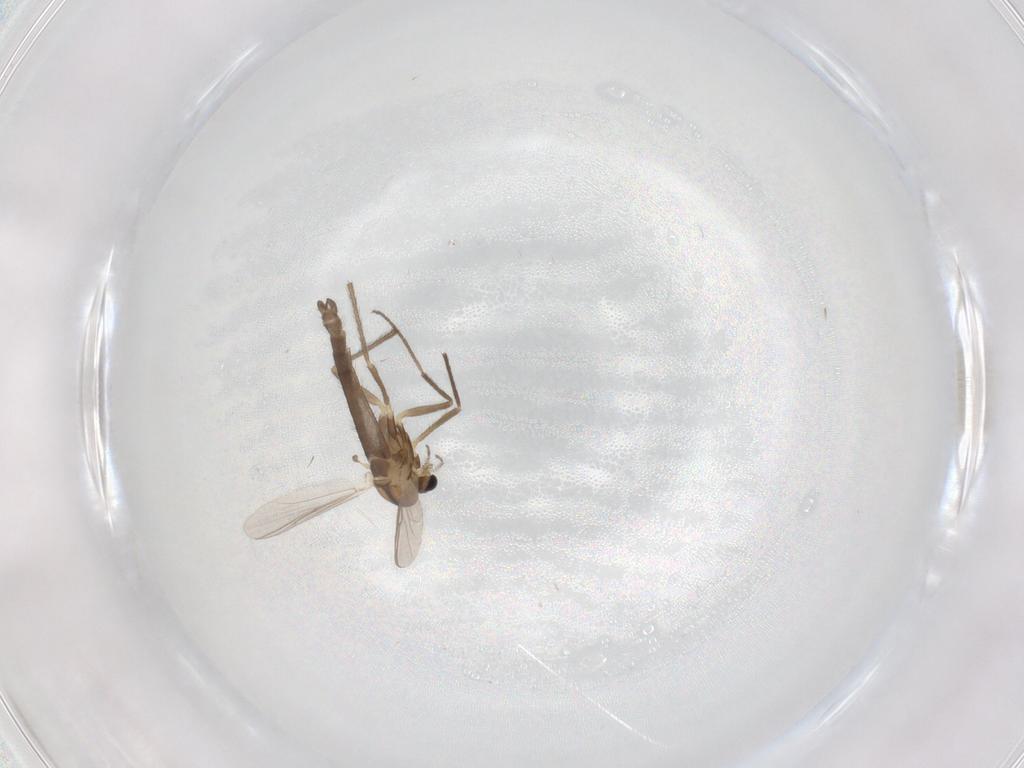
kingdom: Animalia
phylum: Arthropoda
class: Insecta
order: Diptera
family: Chironomidae
